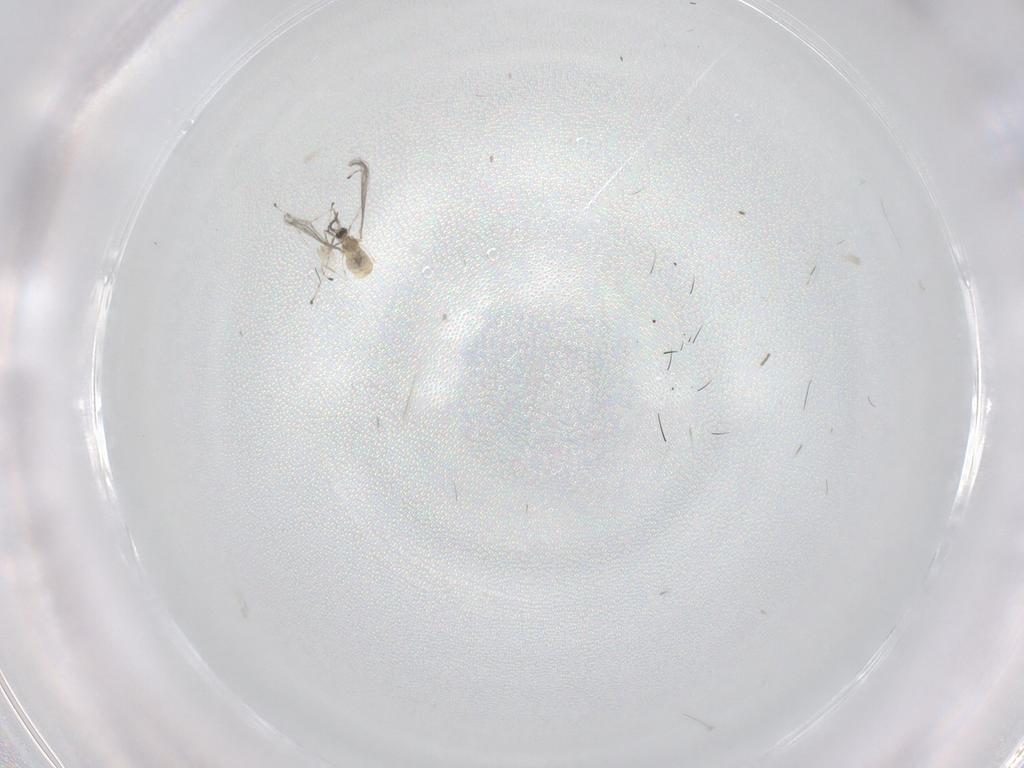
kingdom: Animalia
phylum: Arthropoda
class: Insecta
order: Diptera
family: Cecidomyiidae
